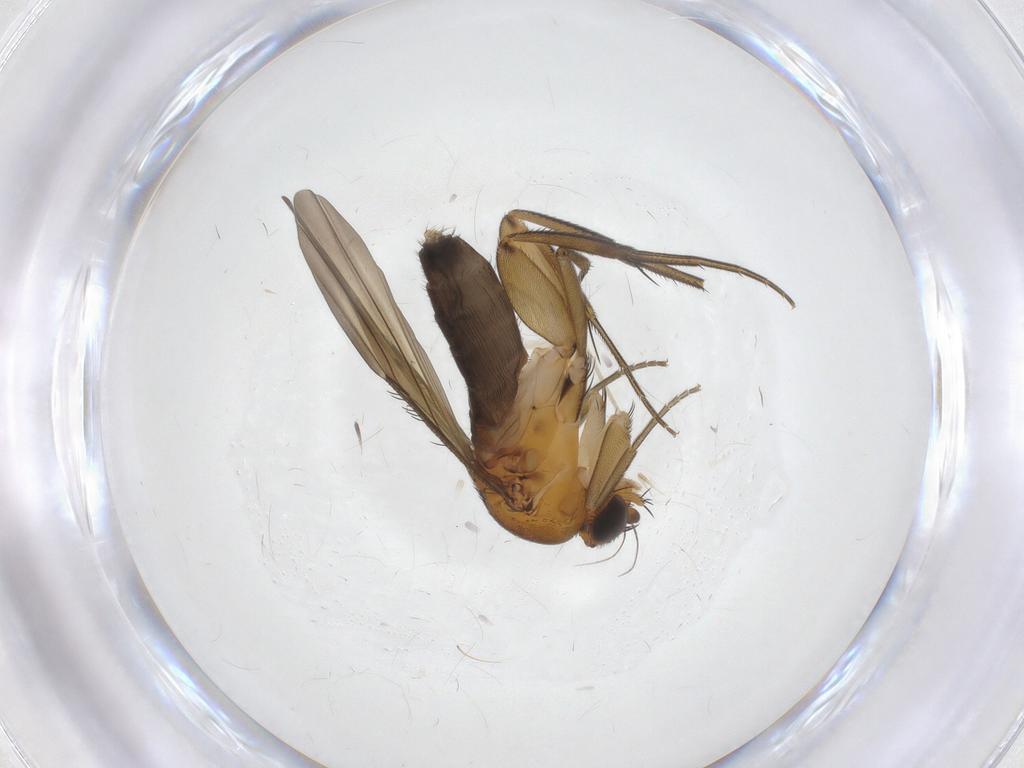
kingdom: Animalia
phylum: Arthropoda
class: Insecta
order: Diptera
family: Phoridae
